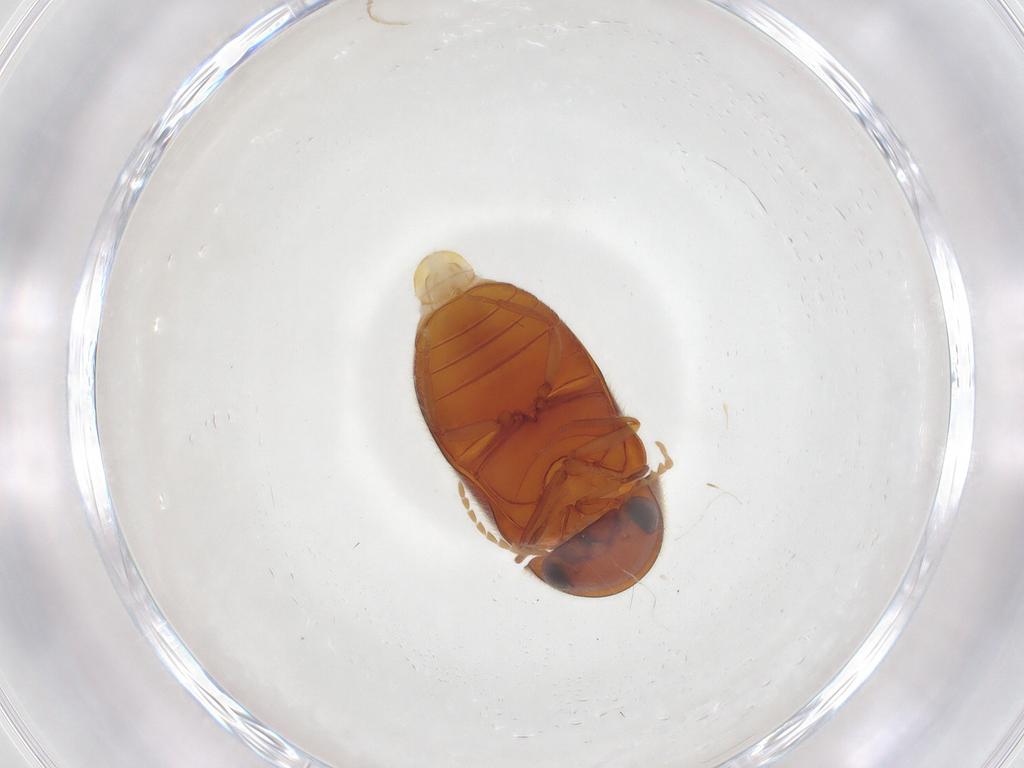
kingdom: Animalia
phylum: Arthropoda
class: Insecta
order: Coleoptera
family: Ptinidae
